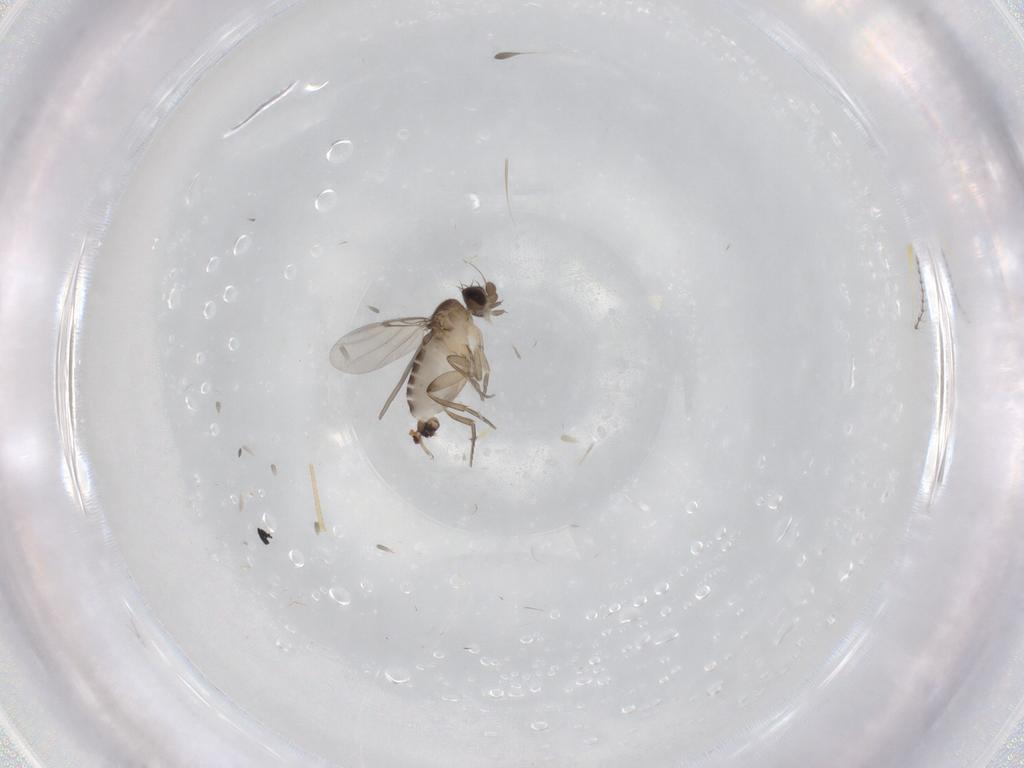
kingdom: Animalia
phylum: Arthropoda
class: Insecta
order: Diptera
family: Phoridae
